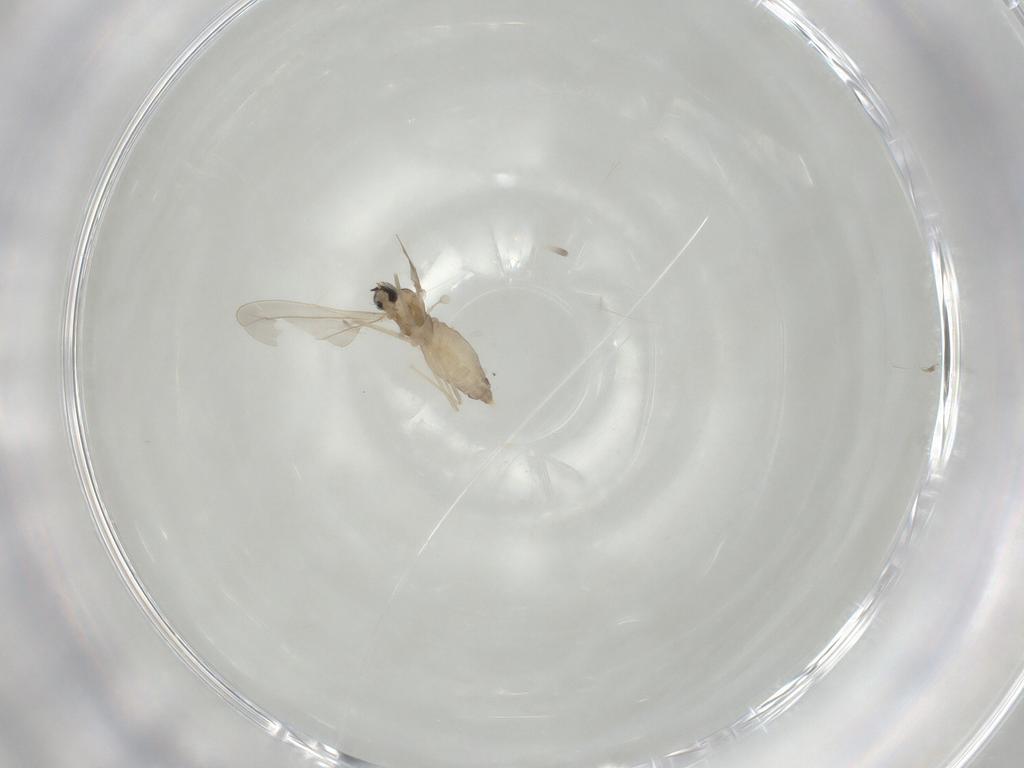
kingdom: Animalia
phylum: Arthropoda
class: Insecta
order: Diptera
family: Cecidomyiidae
